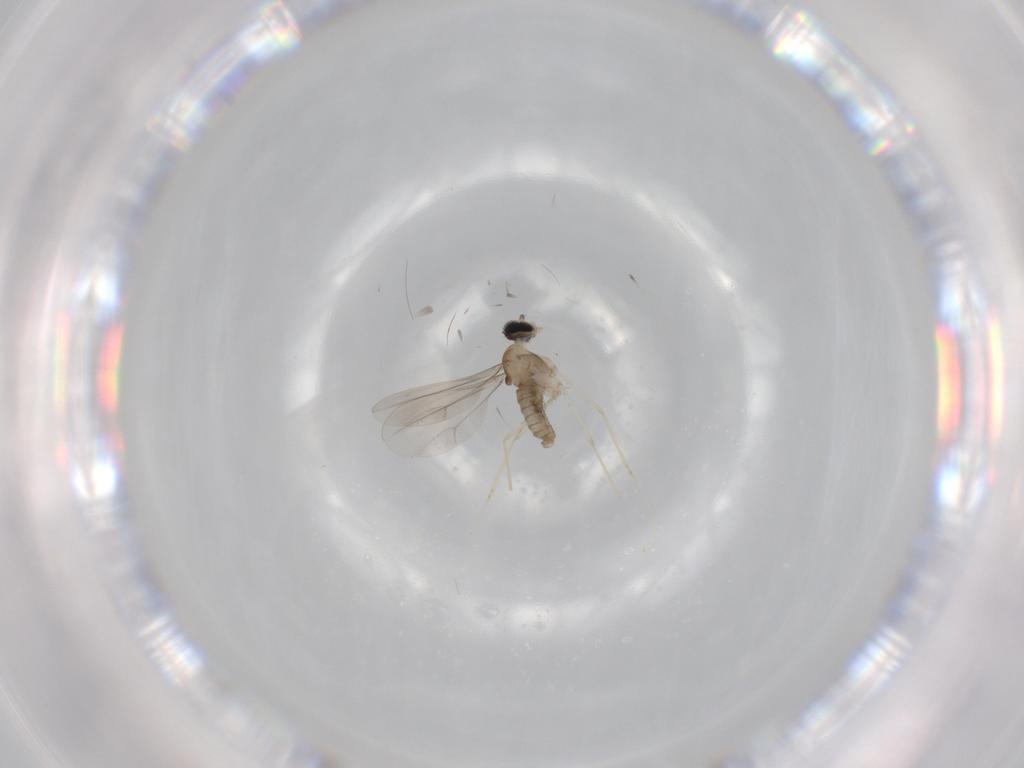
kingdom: Animalia
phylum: Arthropoda
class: Insecta
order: Diptera
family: Cecidomyiidae
